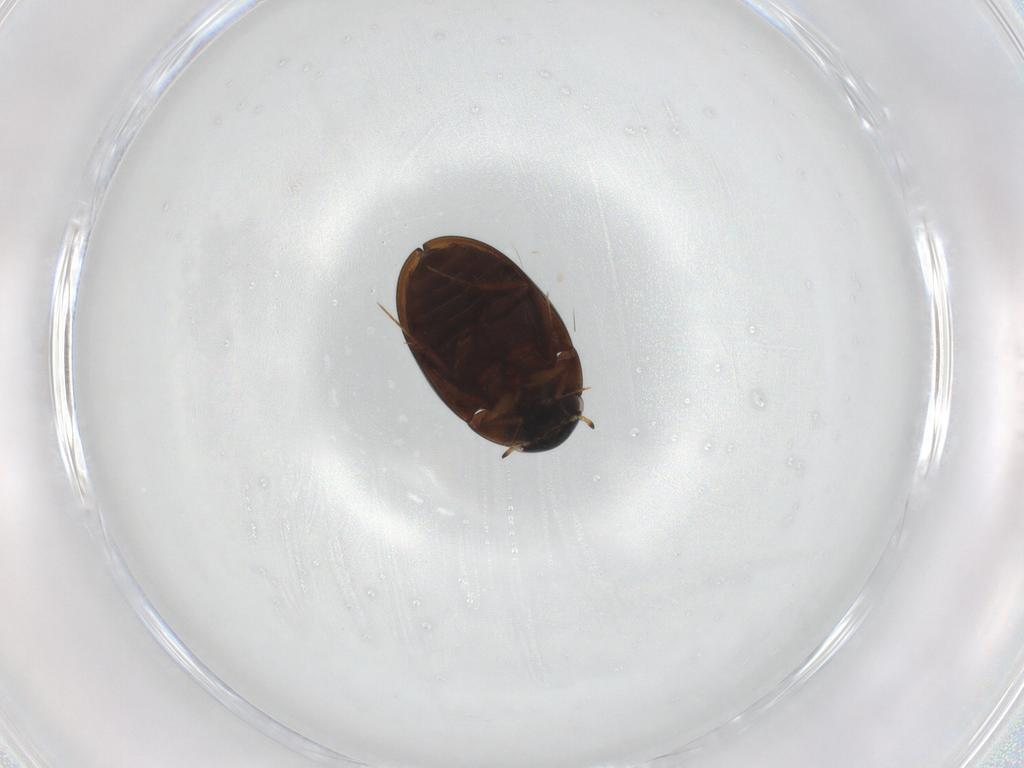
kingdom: Animalia
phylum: Arthropoda
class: Insecta
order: Coleoptera
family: Carabidae
